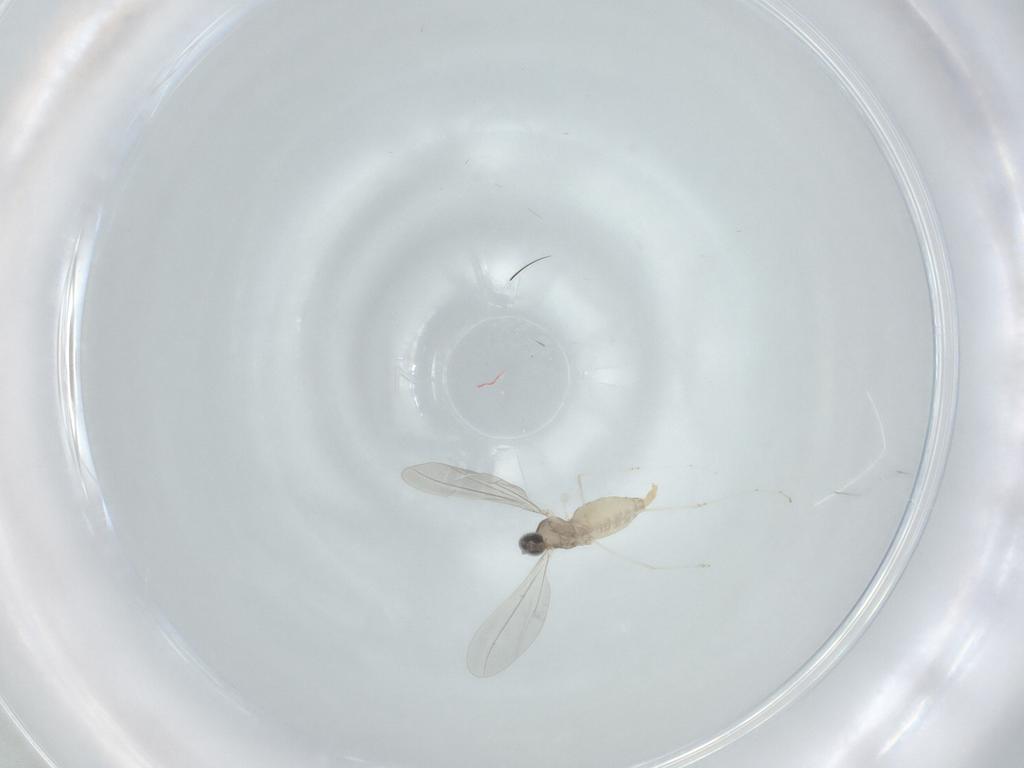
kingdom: Animalia
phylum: Arthropoda
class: Insecta
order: Diptera
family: Cecidomyiidae
